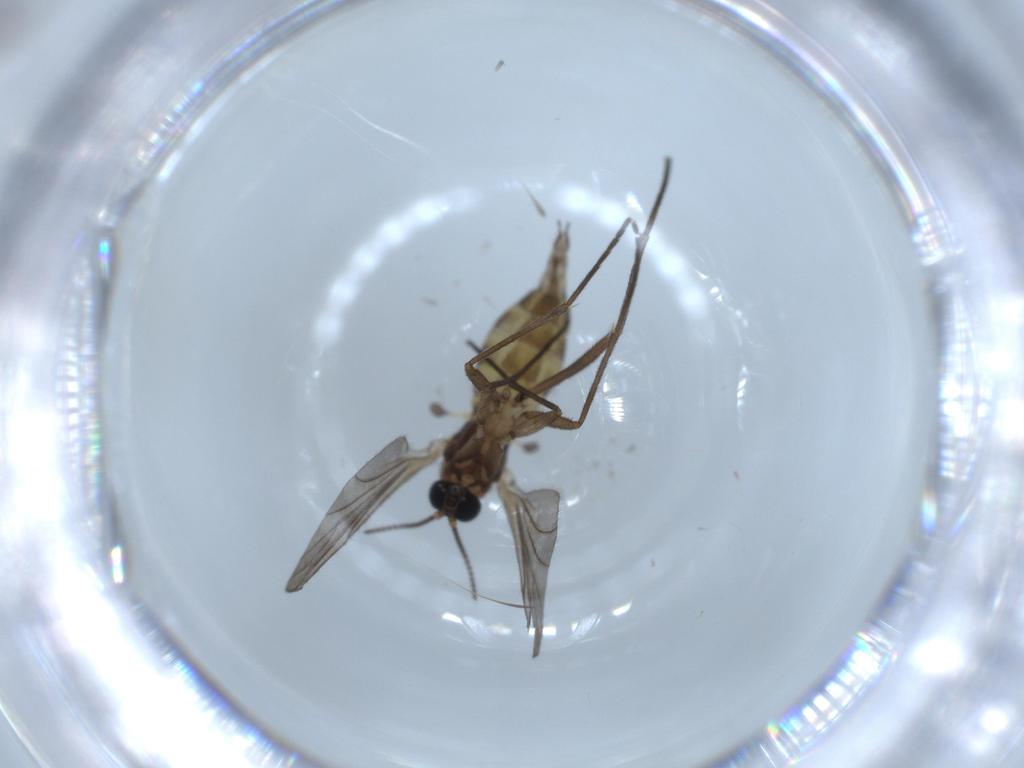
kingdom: Animalia
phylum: Arthropoda
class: Insecta
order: Diptera
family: Sciaridae
